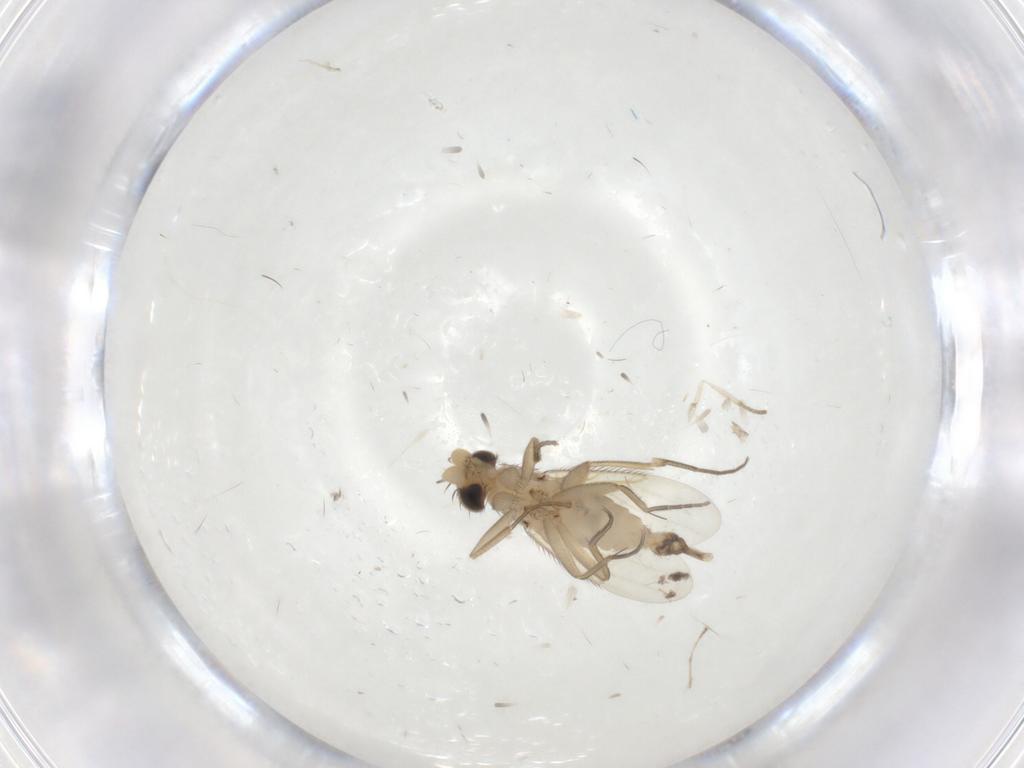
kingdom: Animalia
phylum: Arthropoda
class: Insecta
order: Diptera
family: Phoridae
